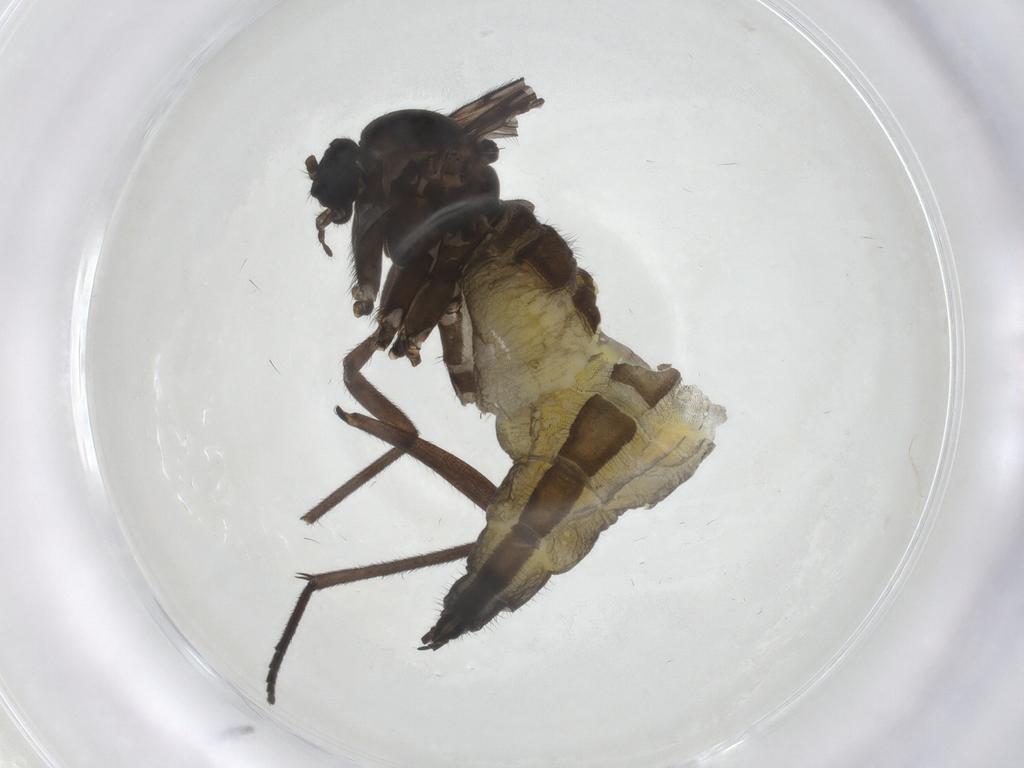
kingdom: Animalia
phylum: Arthropoda
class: Insecta
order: Diptera
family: Sciaridae
